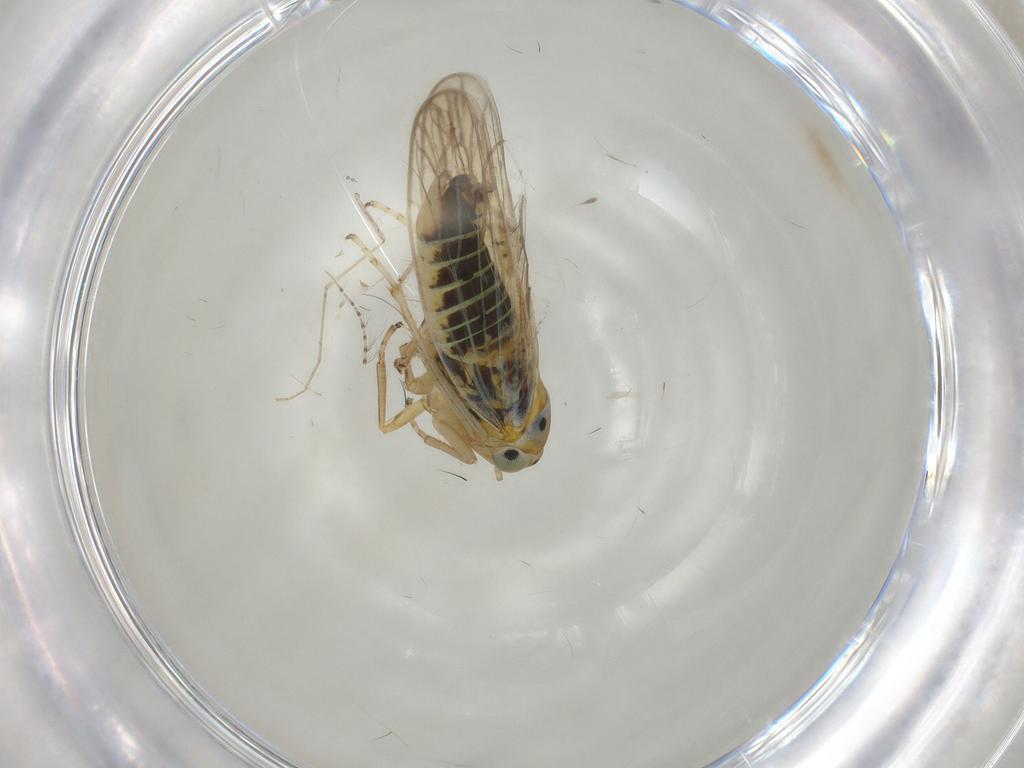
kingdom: Animalia
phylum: Arthropoda
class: Insecta
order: Hemiptera
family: Cicadellidae
